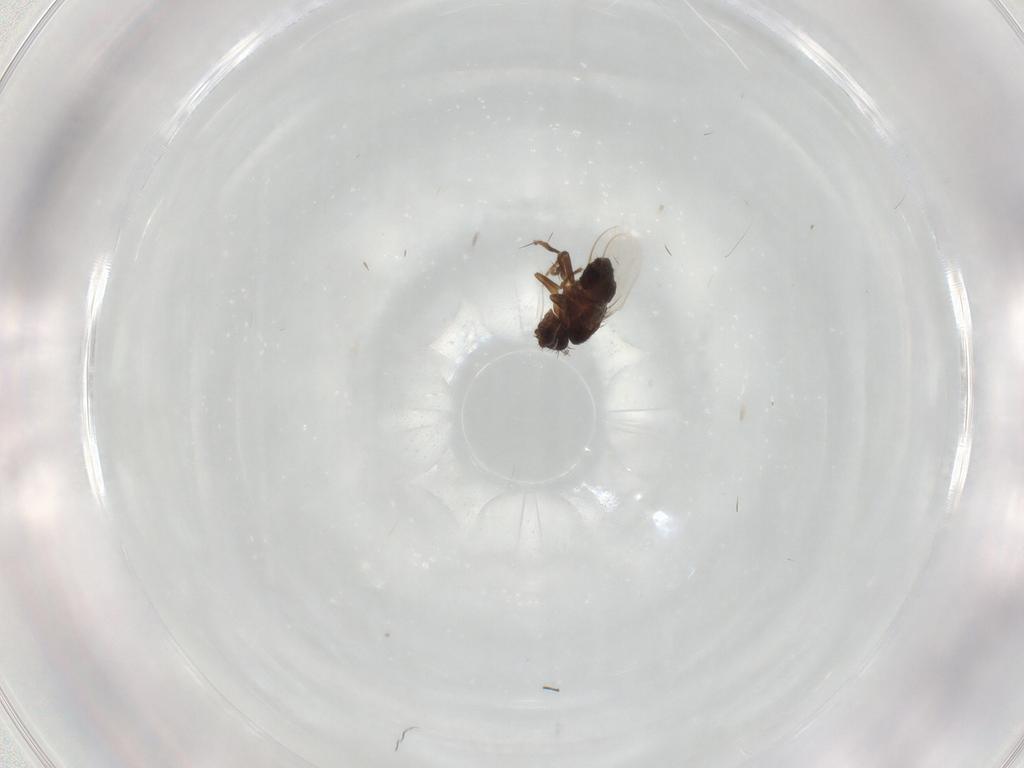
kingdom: Animalia
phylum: Arthropoda
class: Insecta
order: Diptera
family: Sphaeroceridae
